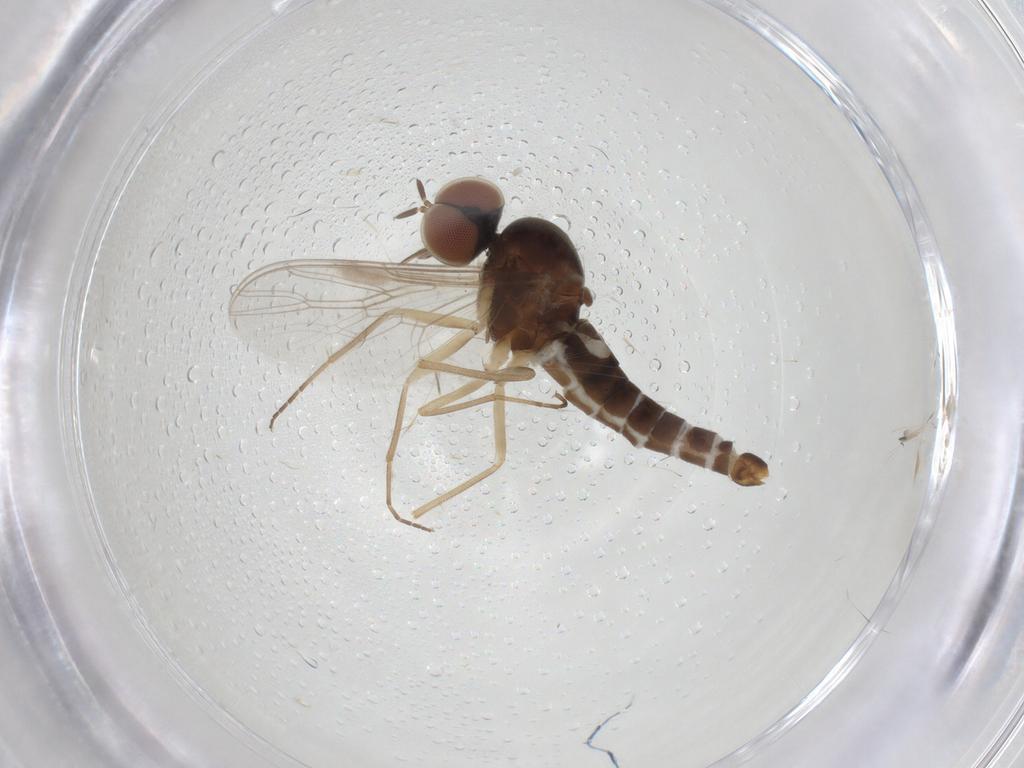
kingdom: Animalia
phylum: Arthropoda
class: Insecta
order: Diptera
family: Scenopinidae
